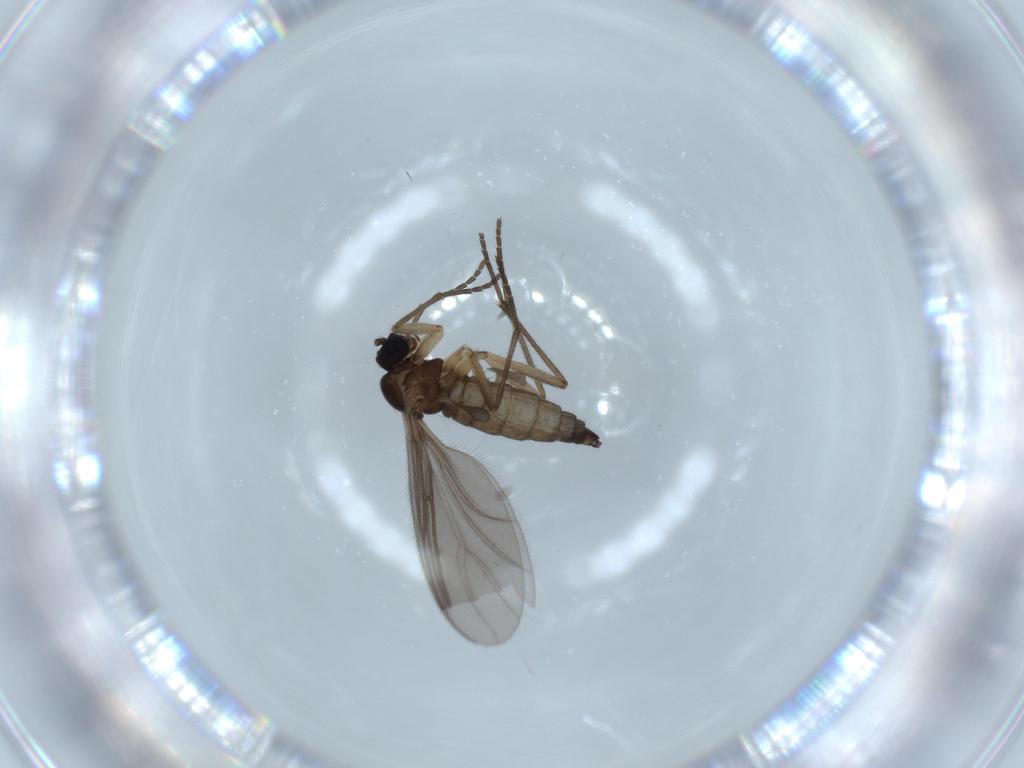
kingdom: Animalia
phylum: Arthropoda
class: Insecta
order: Diptera
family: Sciaridae
